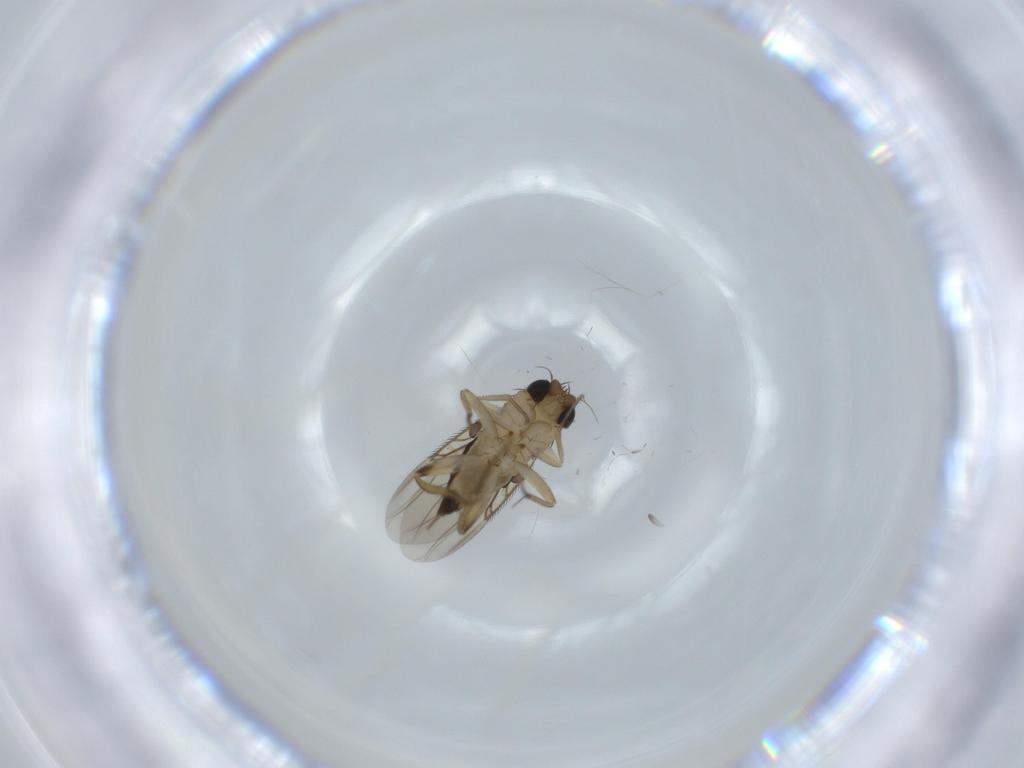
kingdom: Animalia
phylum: Arthropoda
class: Insecta
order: Diptera
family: Phoridae
